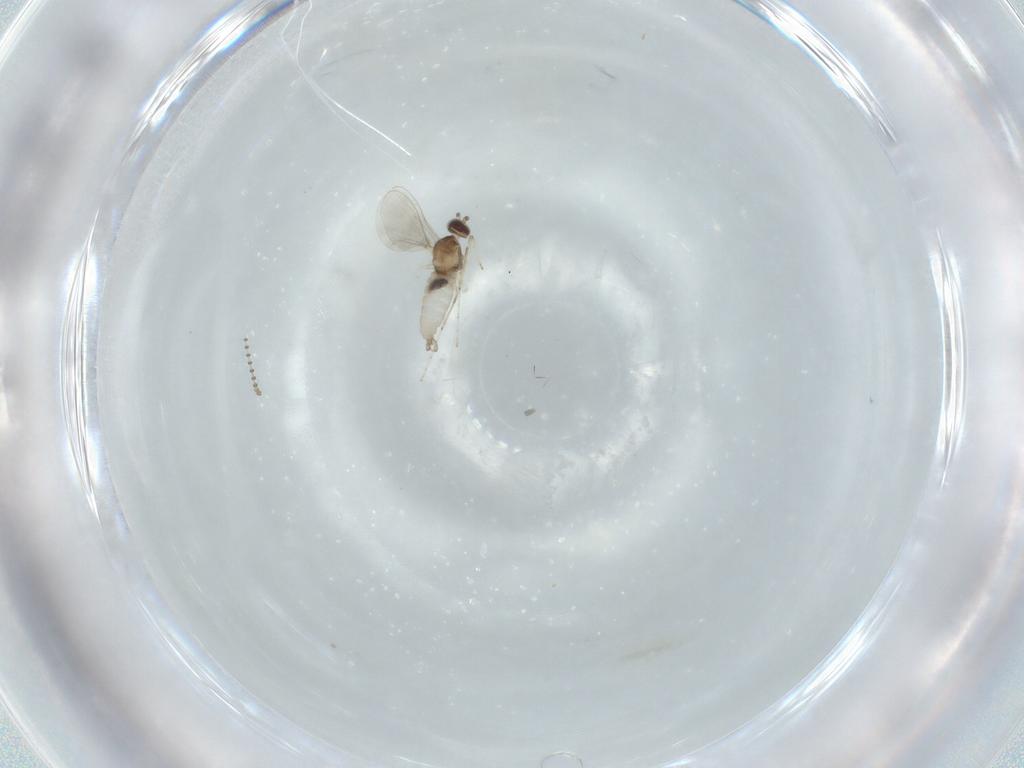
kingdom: Animalia
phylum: Arthropoda
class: Insecta
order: Diptera
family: Cecidomyiidae
